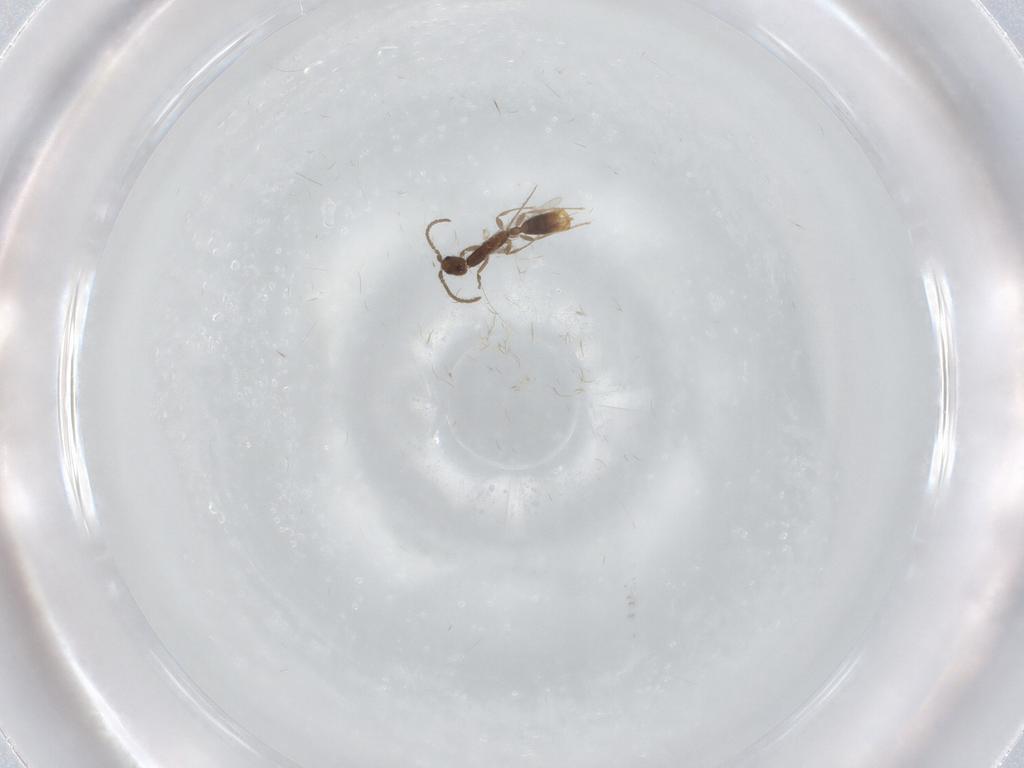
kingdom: Animalia
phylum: Arthropoda
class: Insecta
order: Hymenoptera
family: Formicidae
